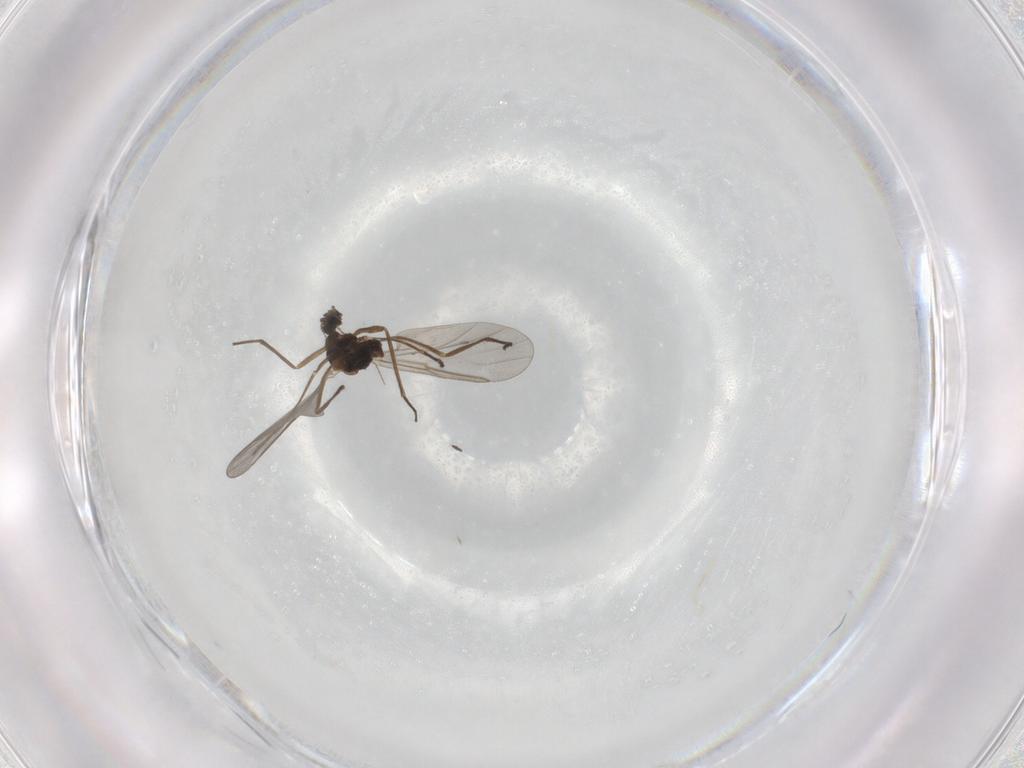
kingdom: Animalia
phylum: Arthropoda
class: Insecta
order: Diptera
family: Cecidomyiidae
